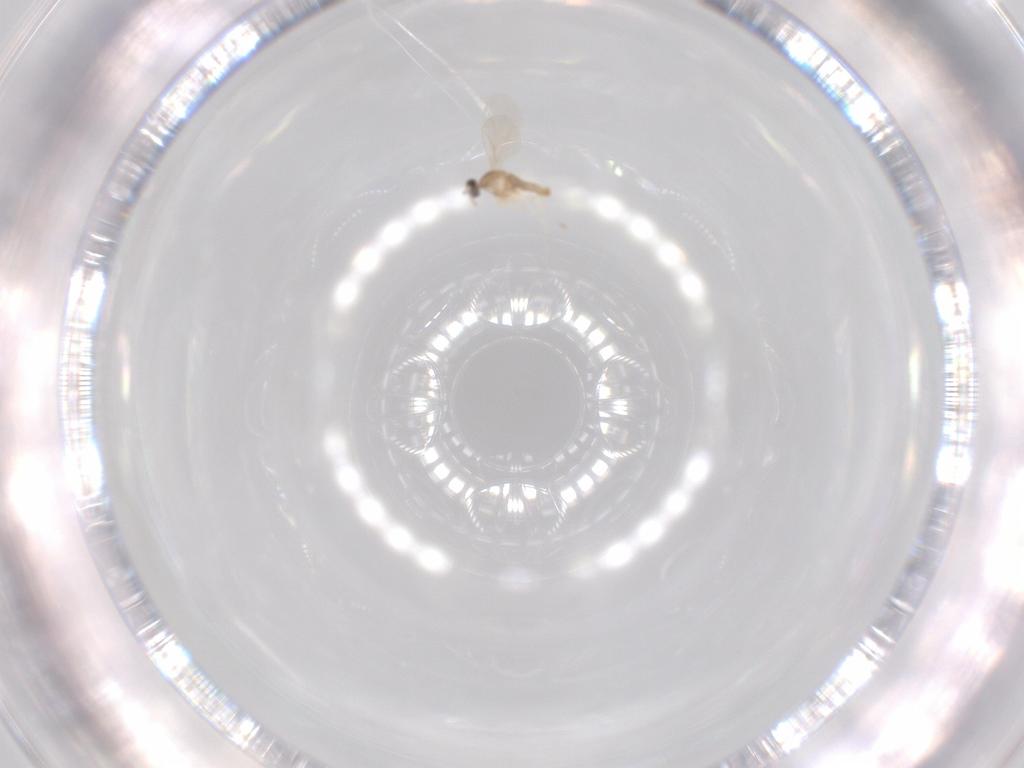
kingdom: Animalia
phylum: Arthropoda
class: Insecta
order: Diptera
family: Cecidomyiidae
